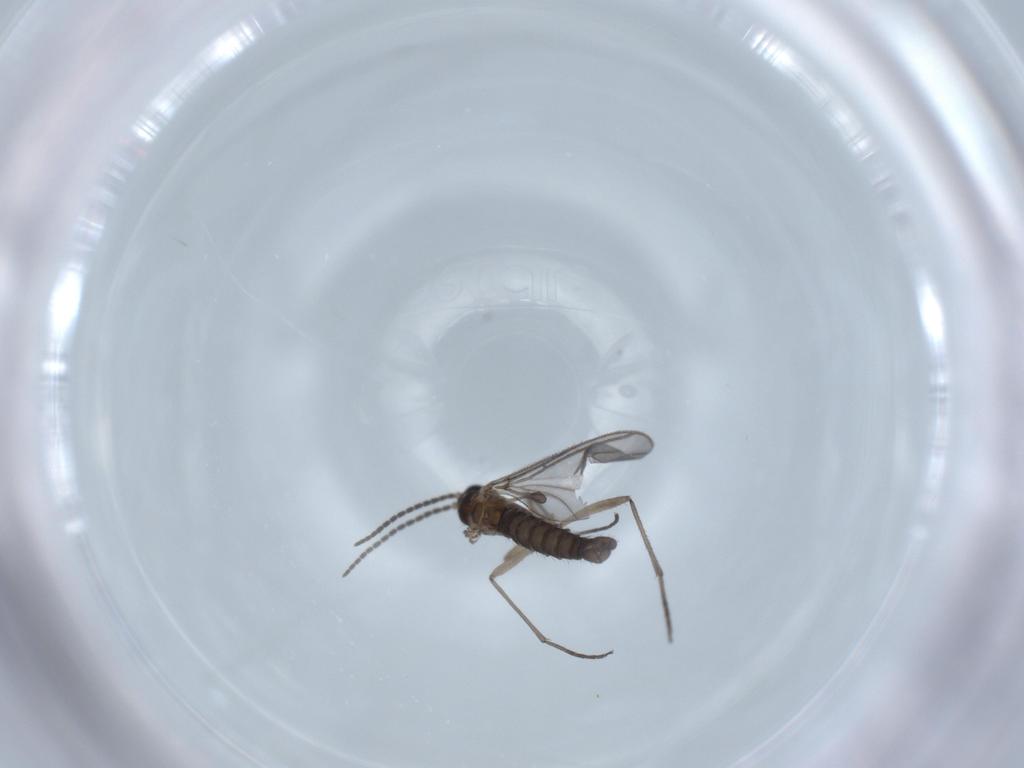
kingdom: Animalia
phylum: Arthropoda
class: Insecta
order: Diptera
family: Sciaridae
